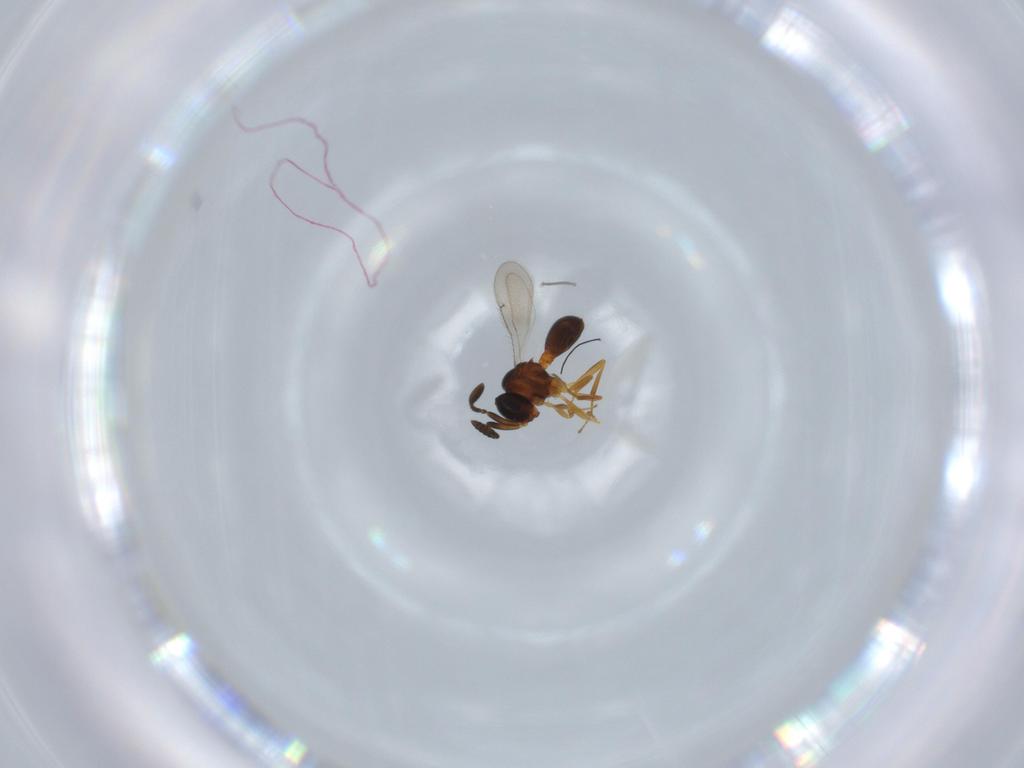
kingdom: Animalia
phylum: Arthropoda
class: Insecta
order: Hymenoptera
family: Scelionidae
